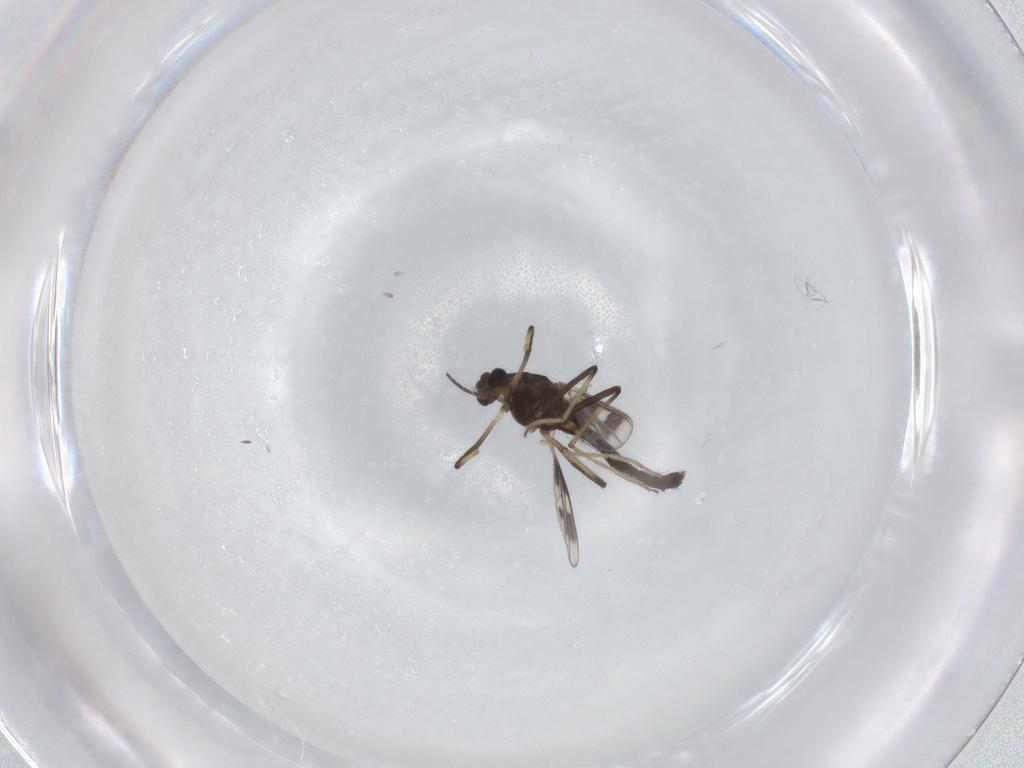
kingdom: Animalia
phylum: Arthropoda
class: Insecta
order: Diptera
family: Chironomidae
